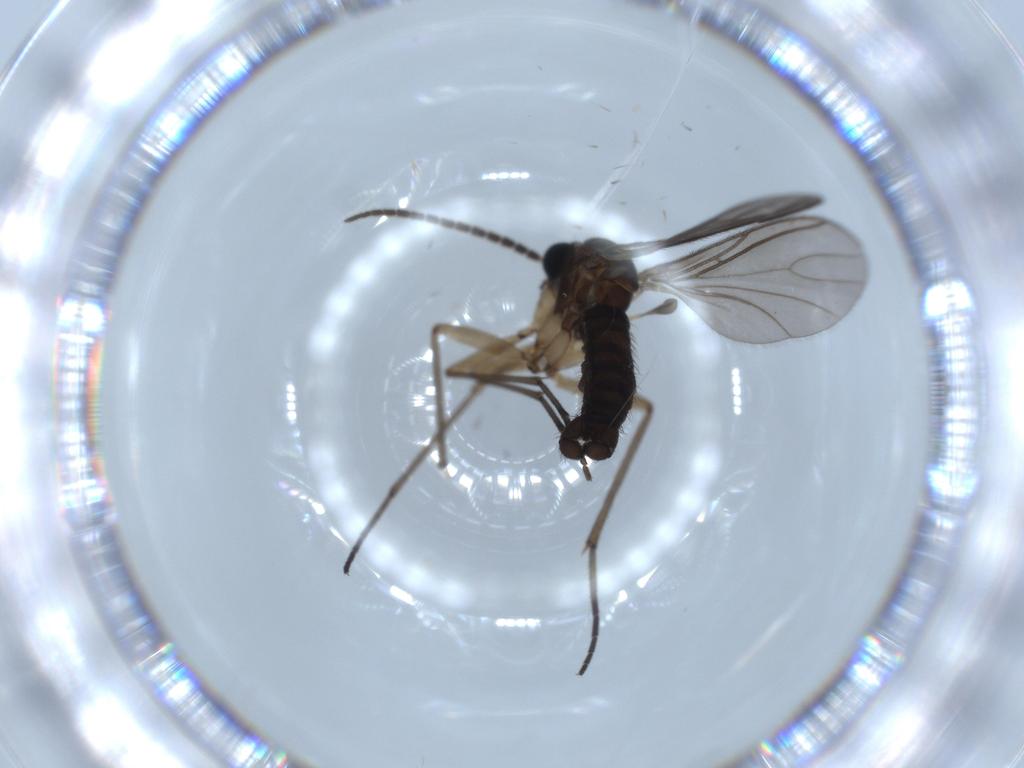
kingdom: Animalia
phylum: Arthropoda
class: Insecta
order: Diptera
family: Sciaridae
